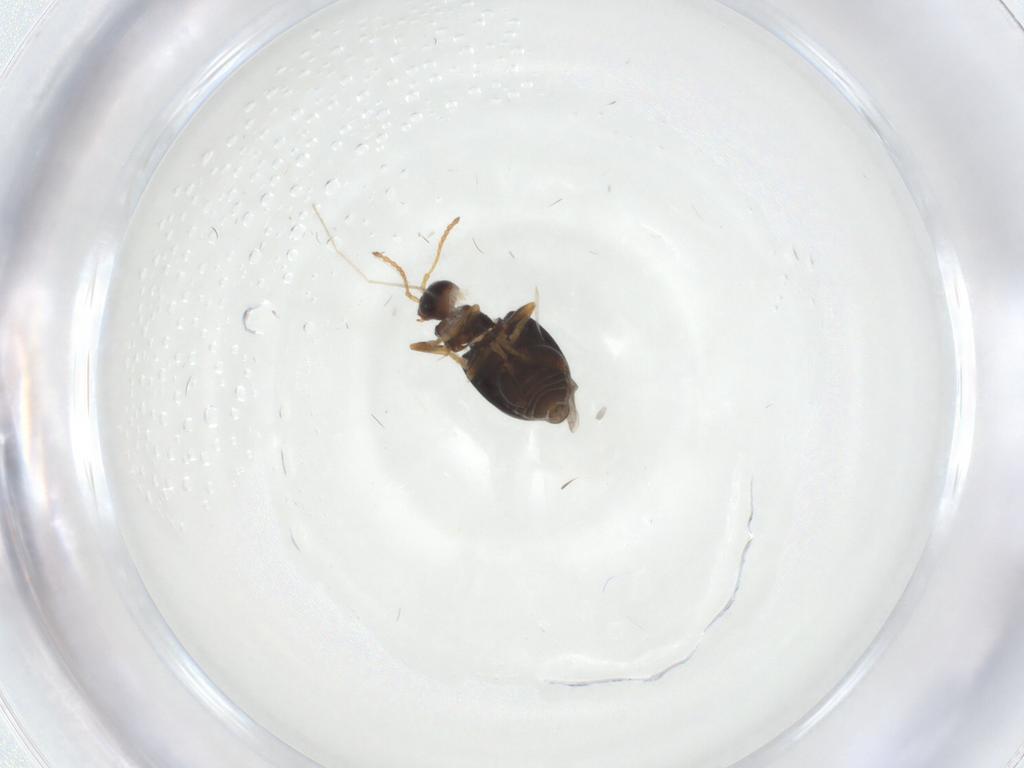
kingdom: Animalia
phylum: Arthropoda
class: Insecta
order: Coleoptera
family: Chrysomelidae
